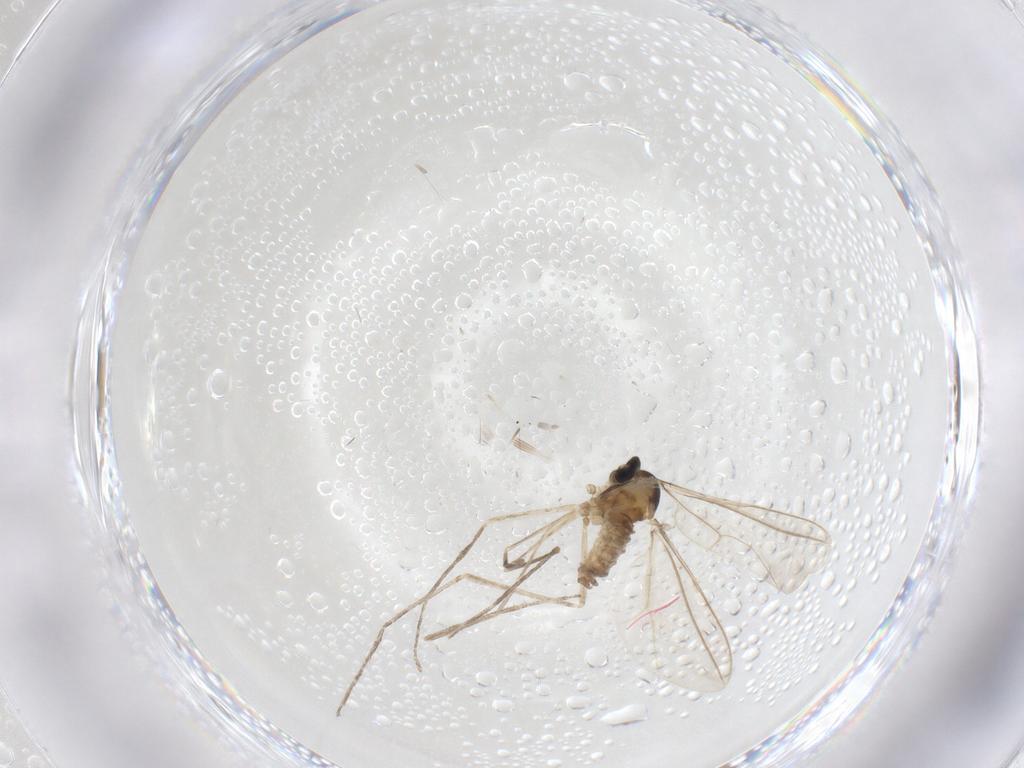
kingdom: Animalia
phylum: Arthropoda
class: Insecta
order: Diptera
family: Cecidomyiidae
